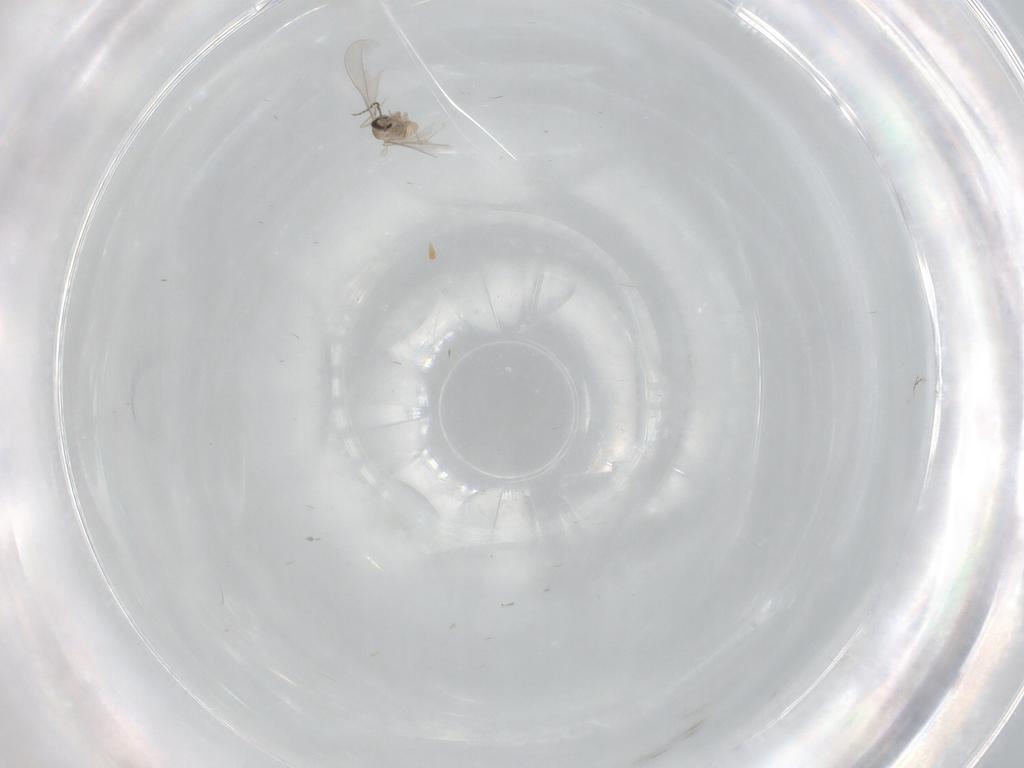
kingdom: Animalia
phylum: Arthropoda
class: Insecta
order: Diptera
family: Cecidomyiidae
